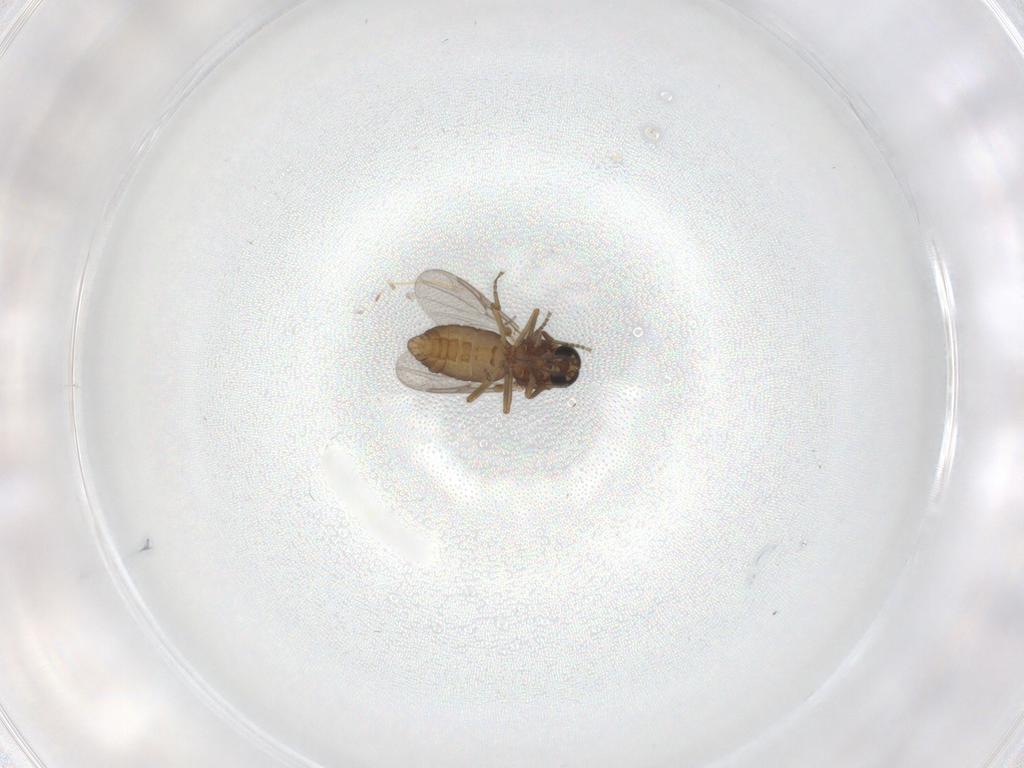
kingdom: Animalia
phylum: Arthropoda
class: Insecta
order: Diptera
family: Ceratopogonidae
